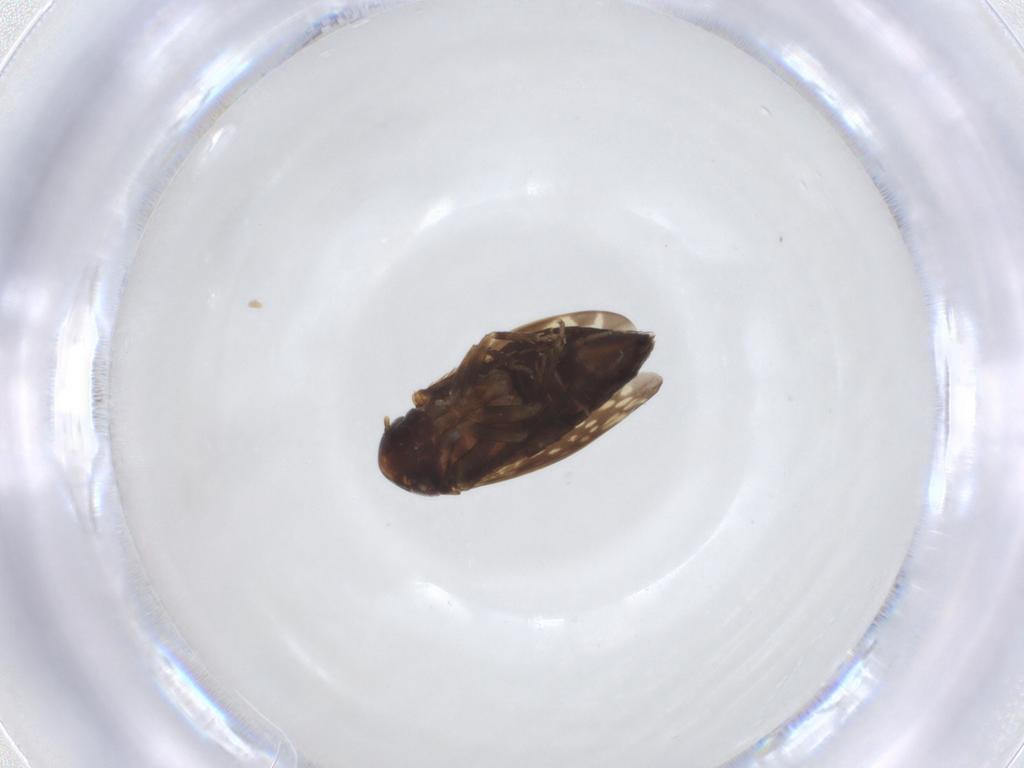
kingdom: Animalia
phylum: Arthropoda
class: Insecta
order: Hemiptera
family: Cicadellidae
